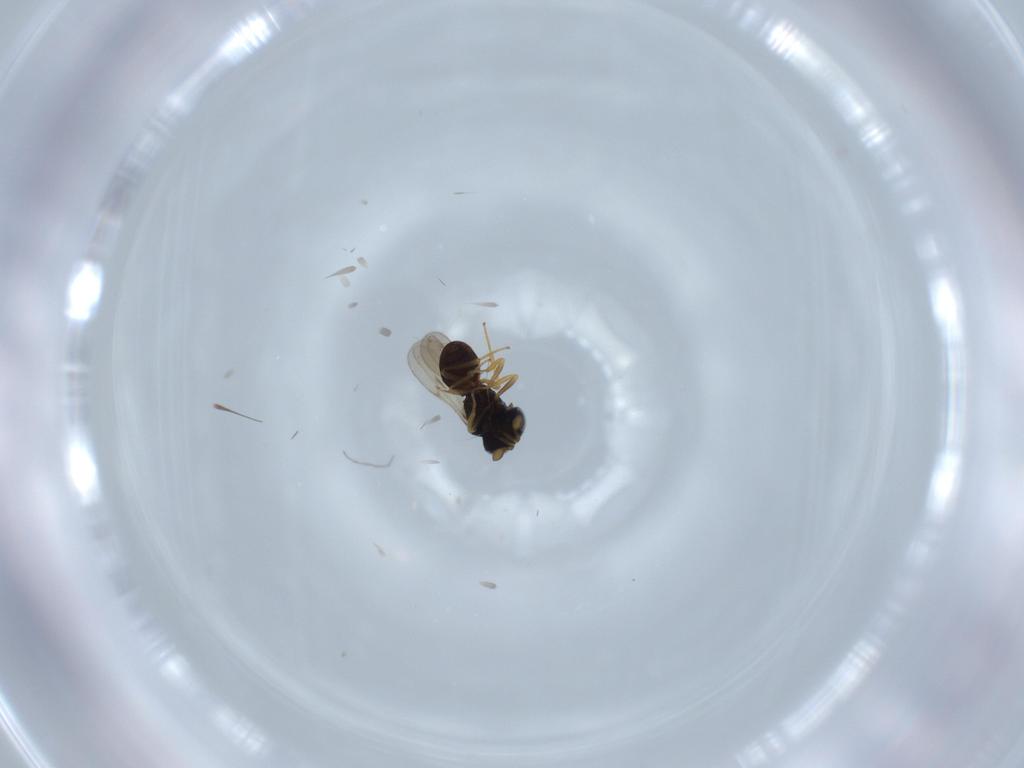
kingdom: Animalia
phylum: Arthropoda
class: Insecta
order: Hymenoptera
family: Scelionidae
